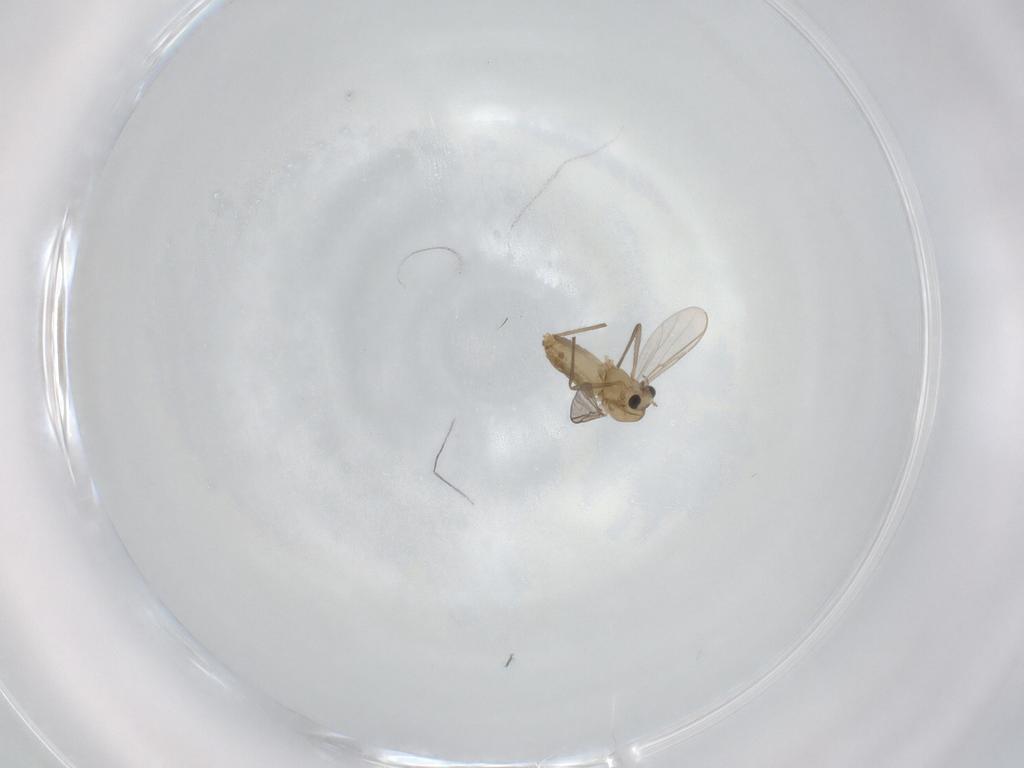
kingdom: Animalia
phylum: Arthropoda
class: Insecta
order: Diptera
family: Chironomidae
